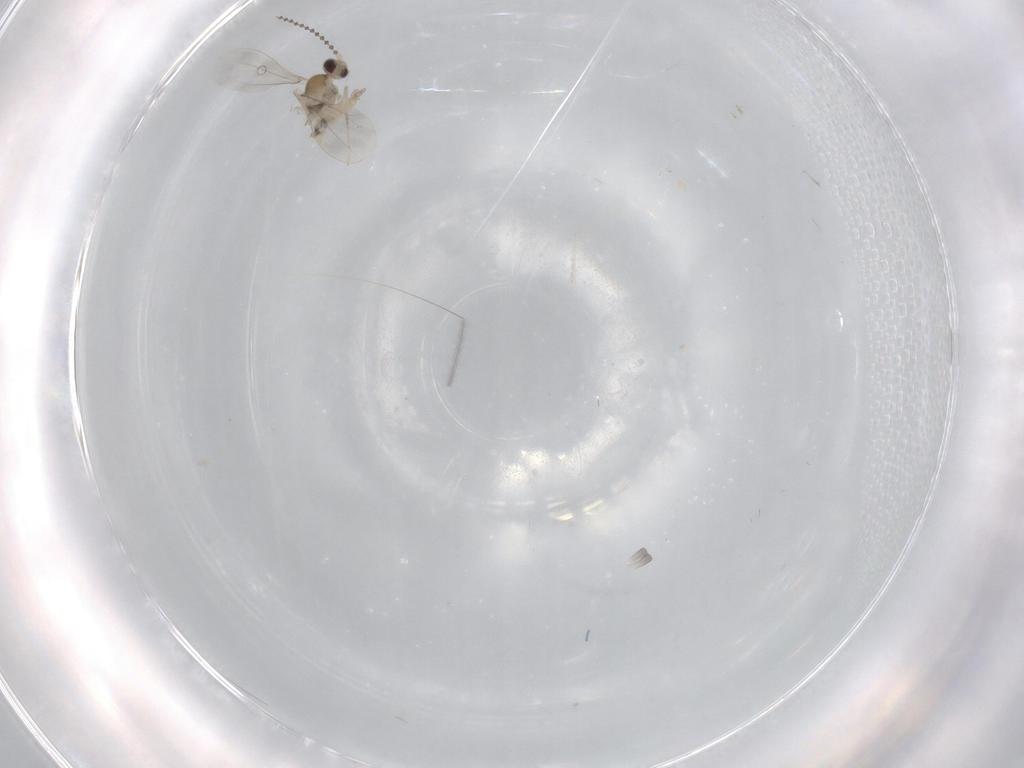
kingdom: Animalia
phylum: Arthropoda
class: Insecta
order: Diptera
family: Cecidomyiidae
